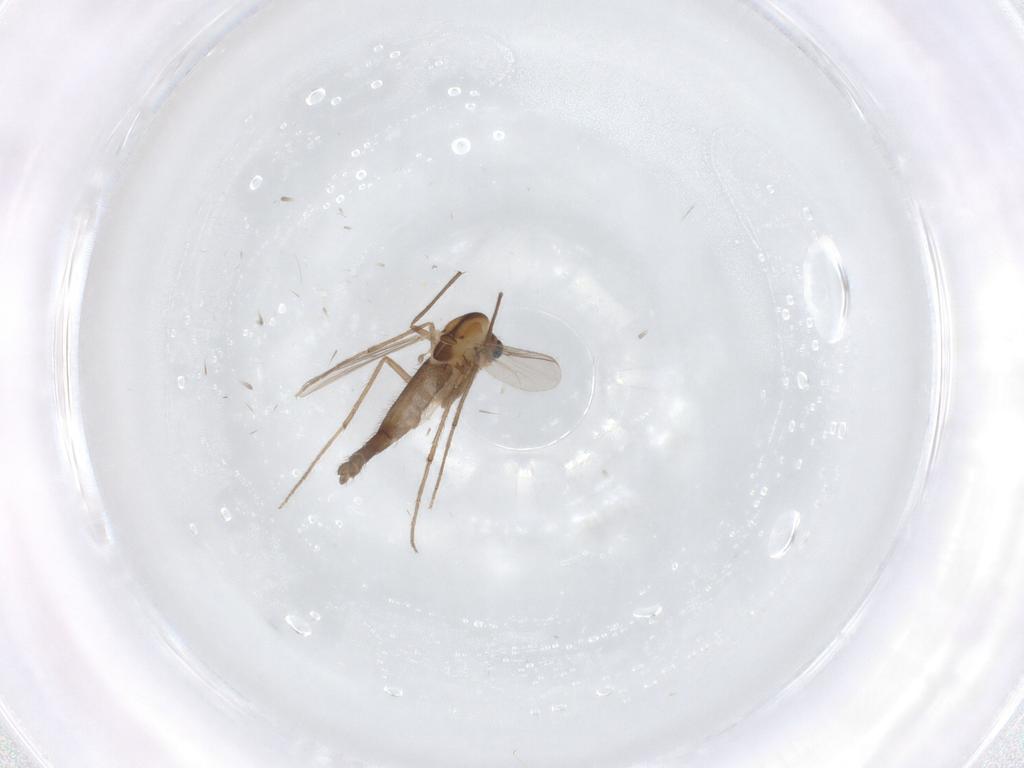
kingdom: Animalia
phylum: Arthropoda
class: Insecta
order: Diptera
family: Chironomidae
